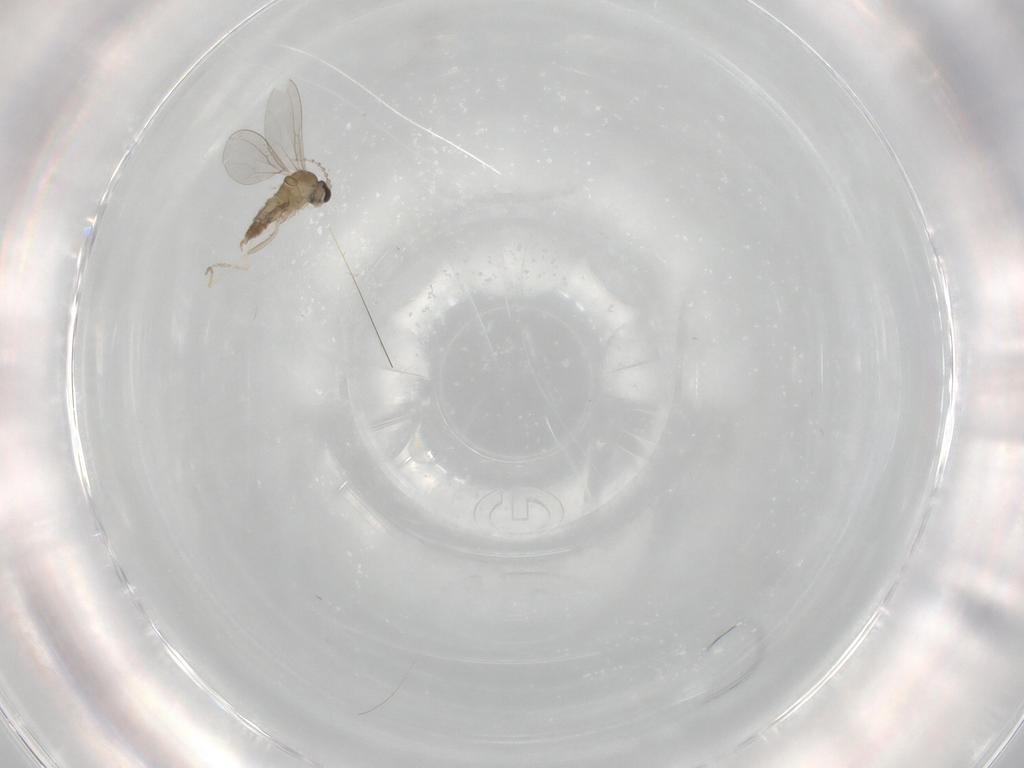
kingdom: Animalia
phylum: Arthropoda
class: Insecta
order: Diptera
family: Cecidomyiidae
